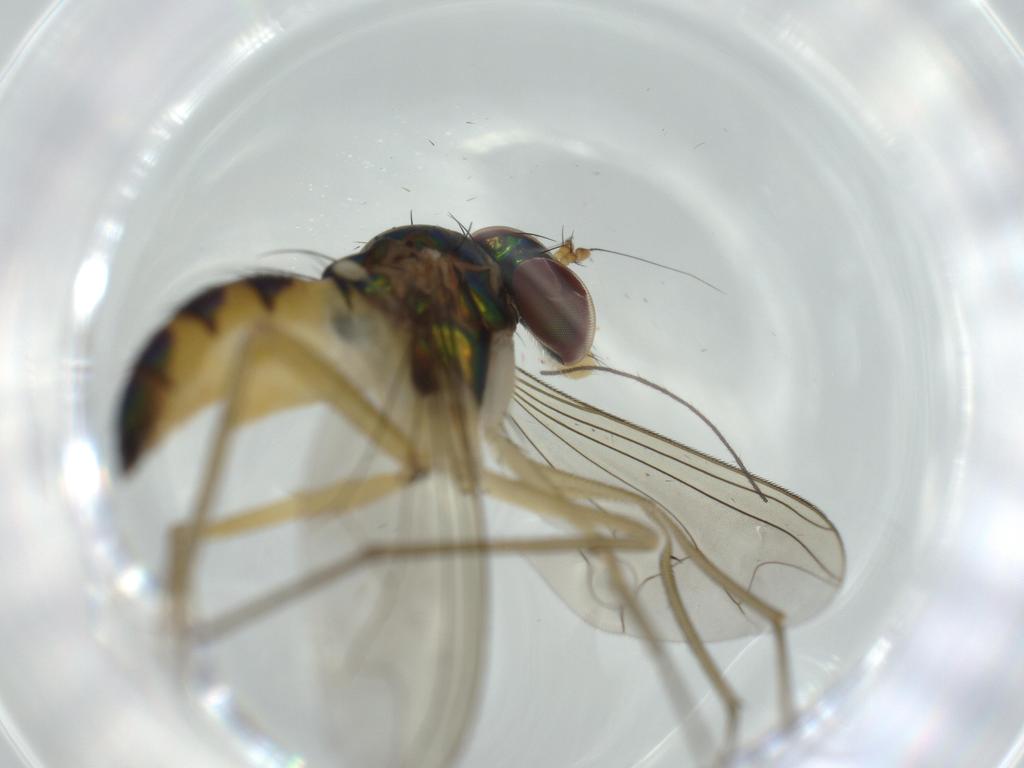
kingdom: Animalia
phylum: Arthropoda
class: Insecta
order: Diptera
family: Dolichopodidae
